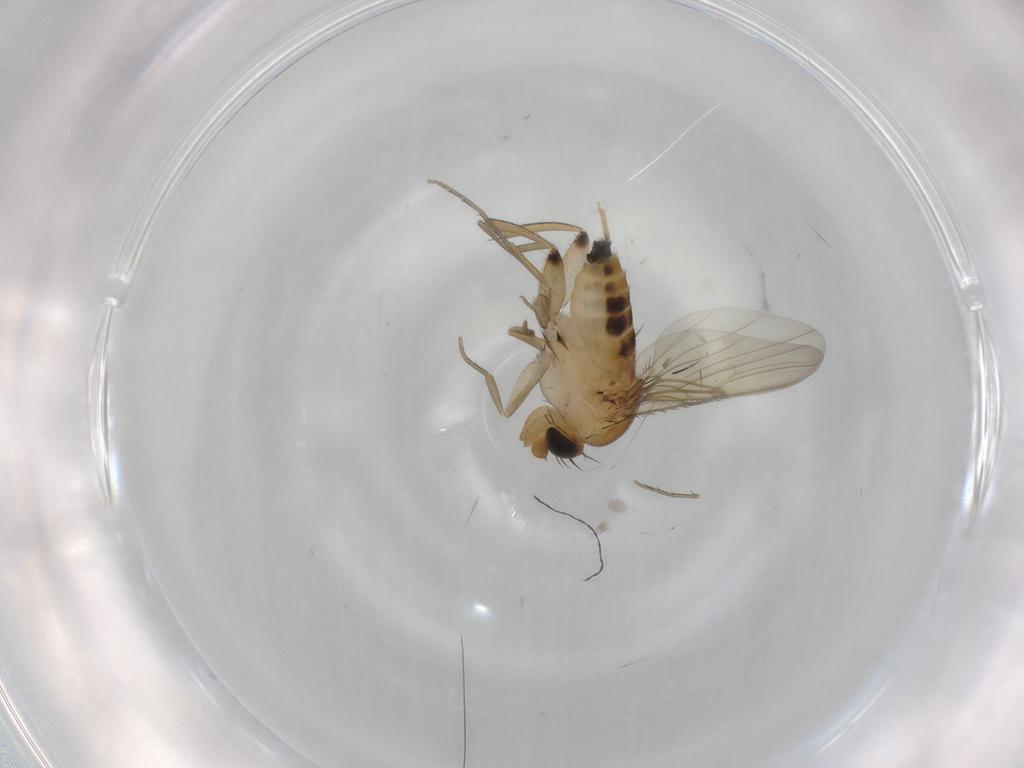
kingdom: Animalia
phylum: Arthropoda
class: Insecta
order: Diptera
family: Phoridae
